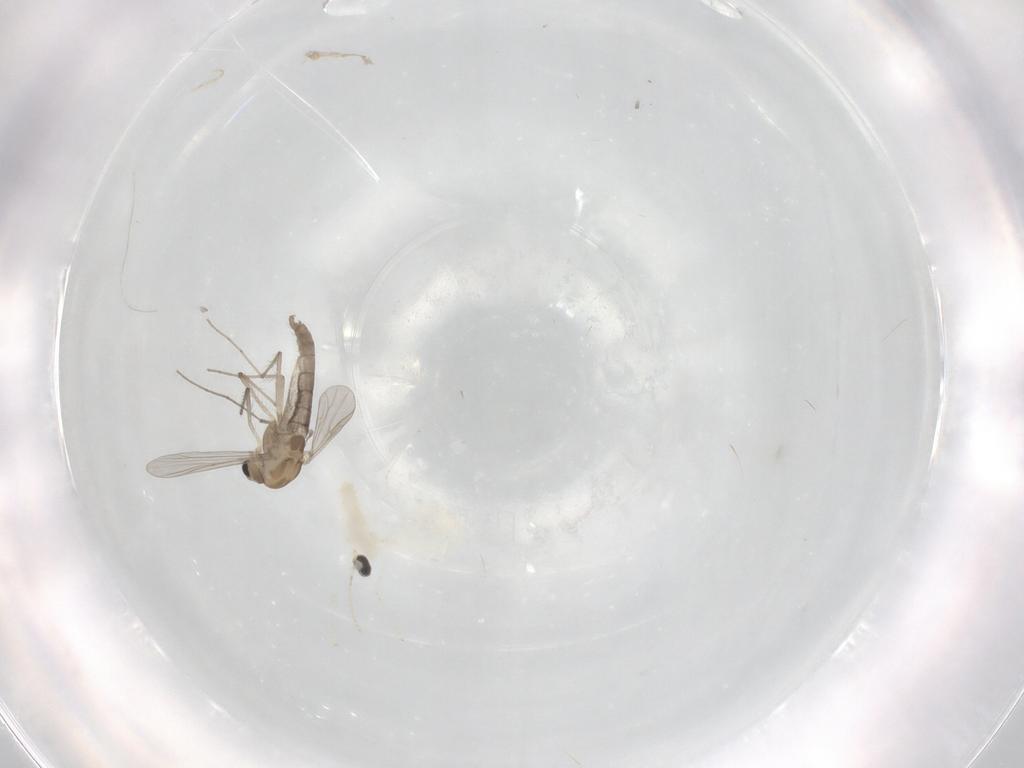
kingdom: Animalia
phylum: Arthropoda
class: Insecta
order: Diptera
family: Chironomidae
